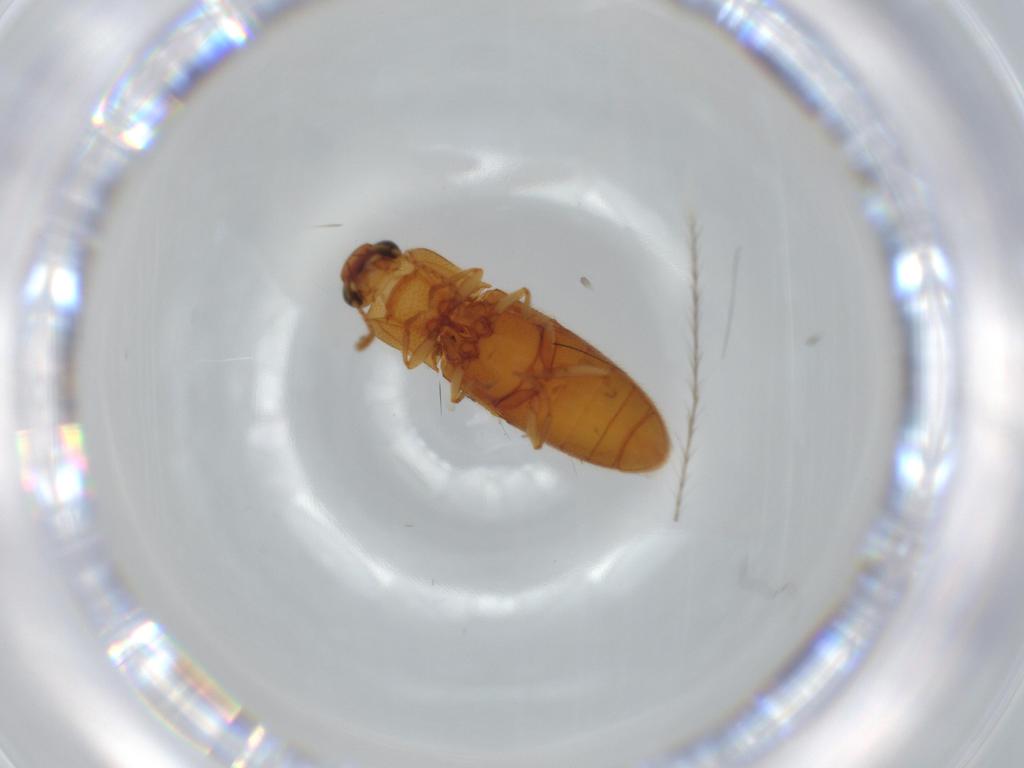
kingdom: Animalia
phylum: Arthropoda
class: Insecta
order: Coleoptera
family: Elateridae
